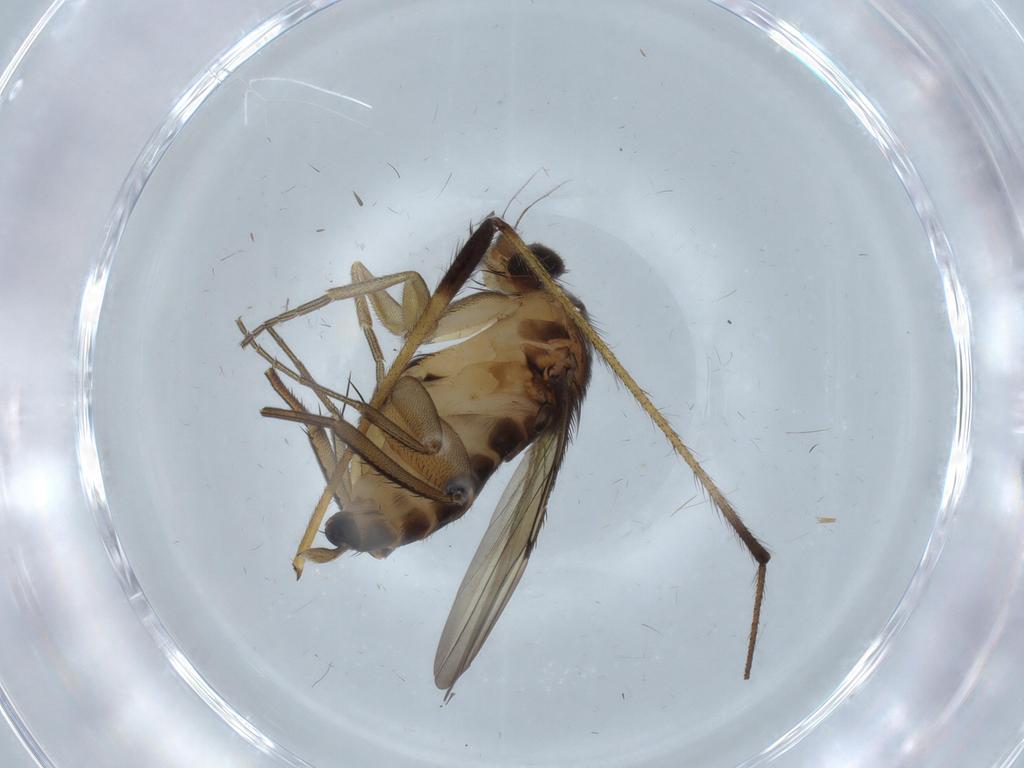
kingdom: Animalia
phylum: Arthropoda
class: Insecta
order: Diptera
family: Phoridae
